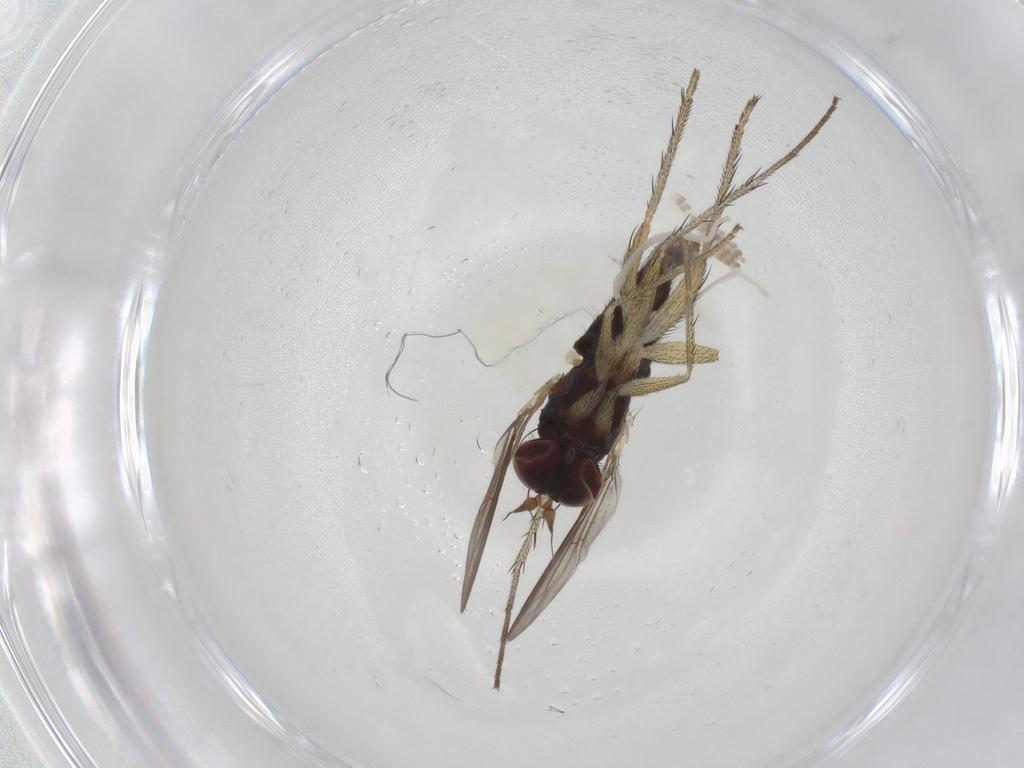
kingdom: Animalia
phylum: Arthropoda
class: Insecta
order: Diptera
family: Dolichopodidae
